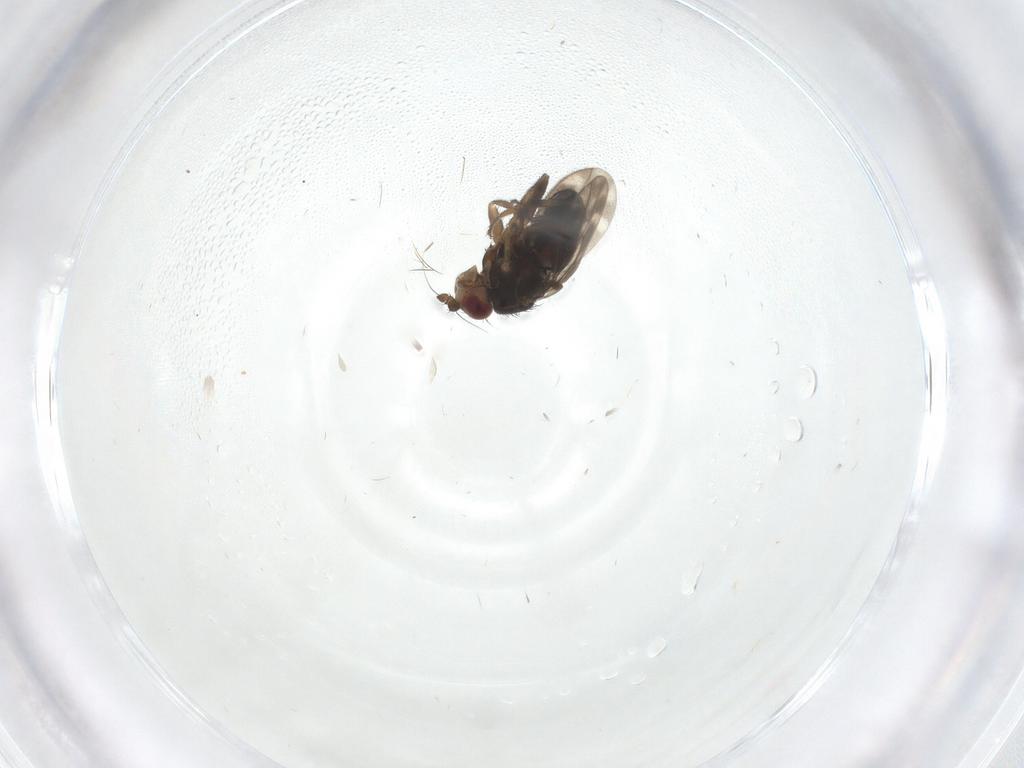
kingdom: Animalia
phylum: Arthropoda
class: Insecta
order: Diptera
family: Sphaeroceridae
